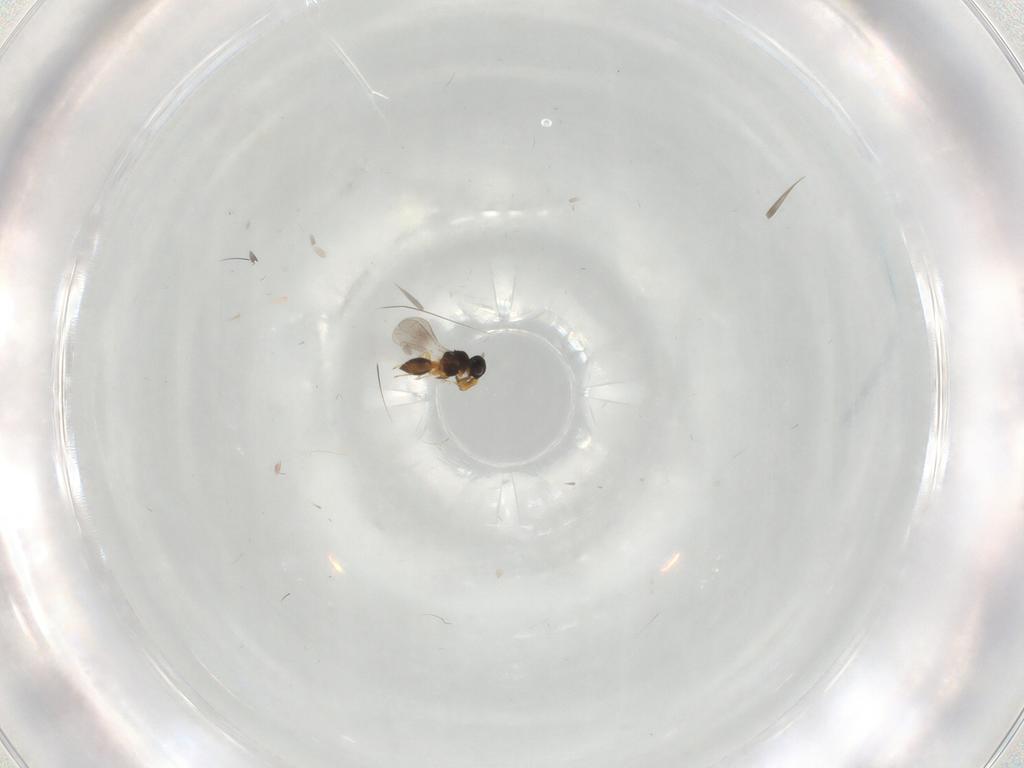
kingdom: Animalia
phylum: Arthropoda
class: Insecta
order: Hymenoptera
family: Platygastridae
